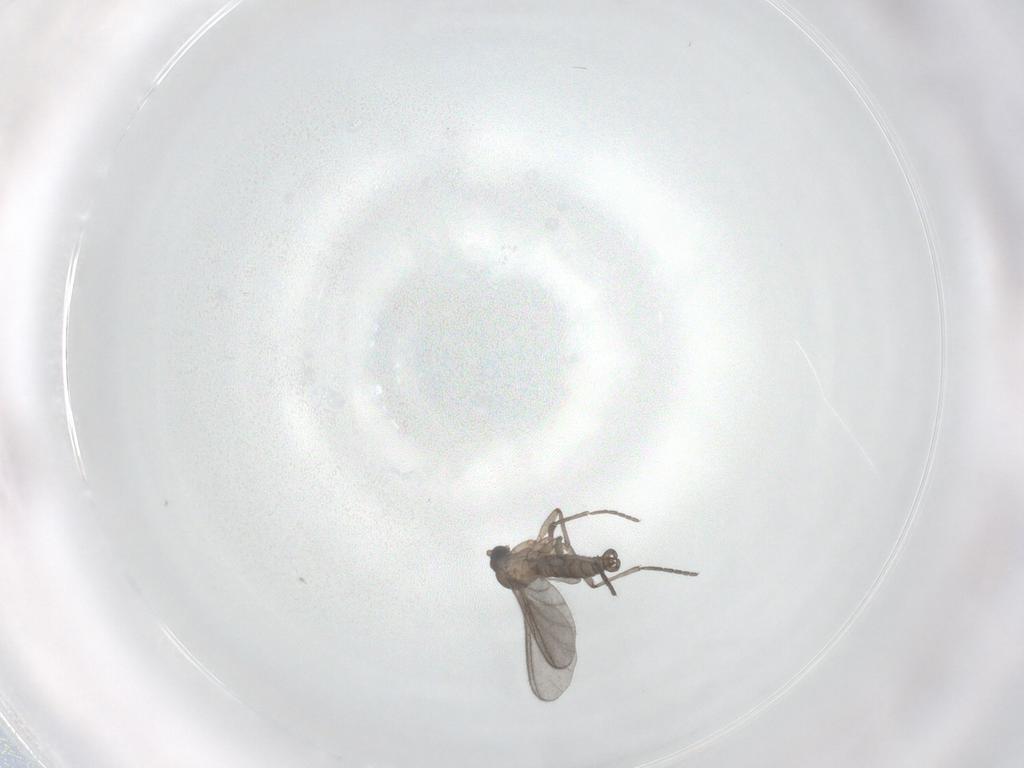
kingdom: Animalia
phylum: Arthropoda
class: Insecta
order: Diptera
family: Sciaridae
